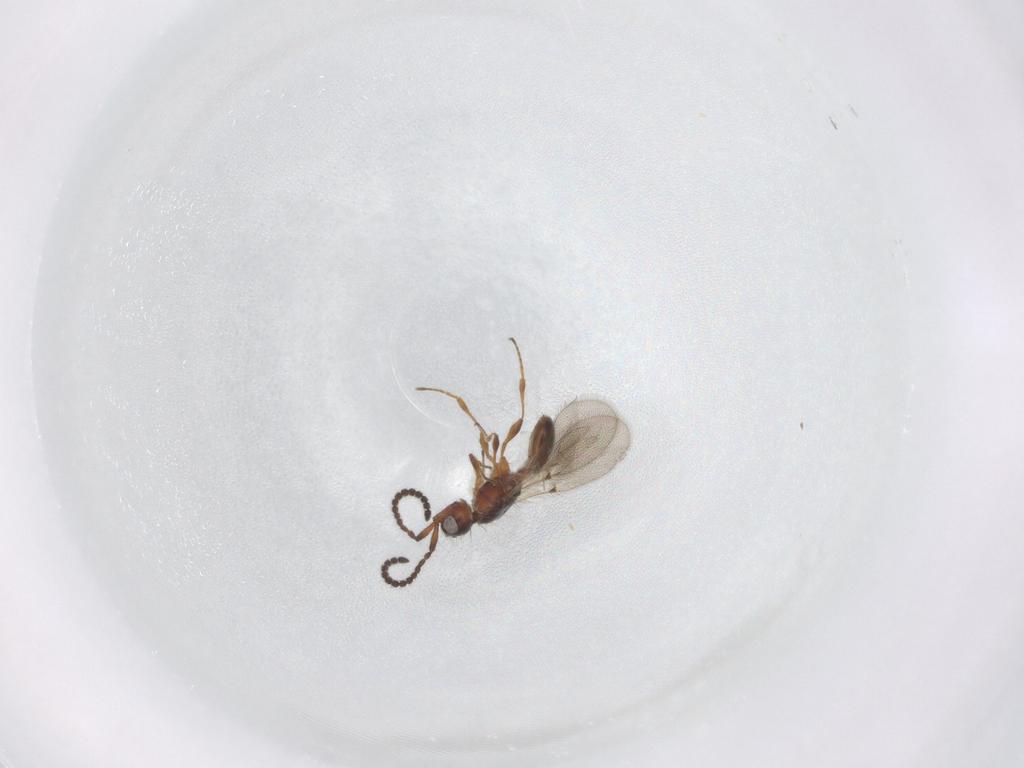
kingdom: Animalia
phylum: Arthropoda
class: Insecta
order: Hymenoptera
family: Diapriidae
